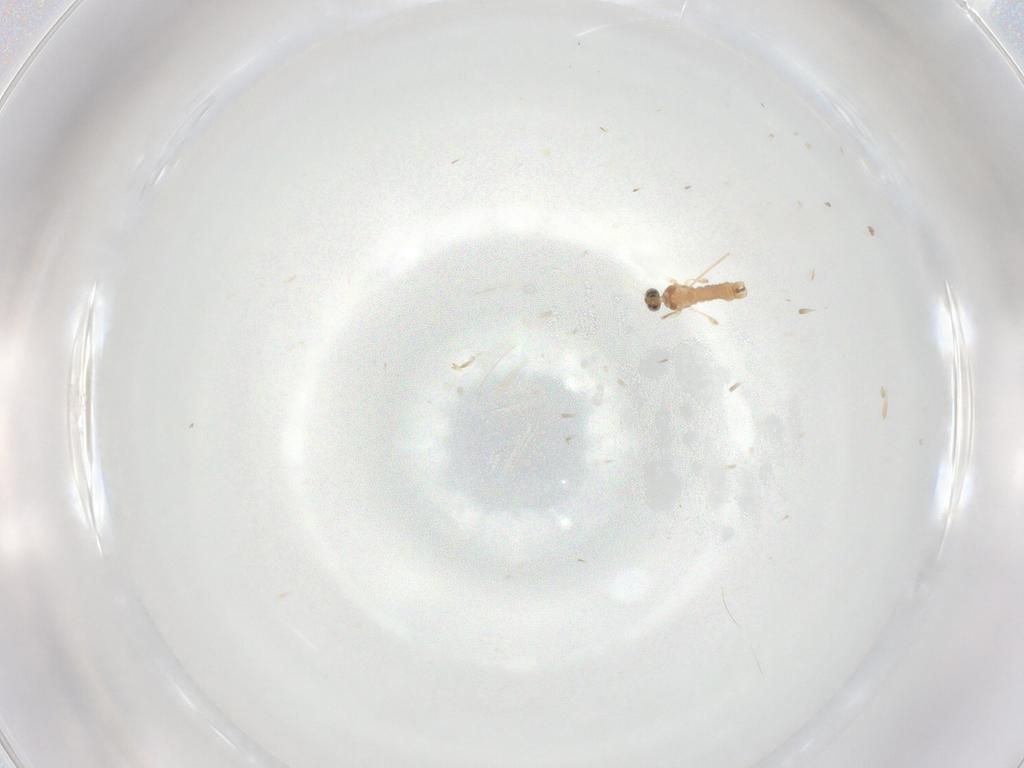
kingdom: Animalia
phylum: Arthropoda
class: Insecta
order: Diptera
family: Cecidomyiidae
